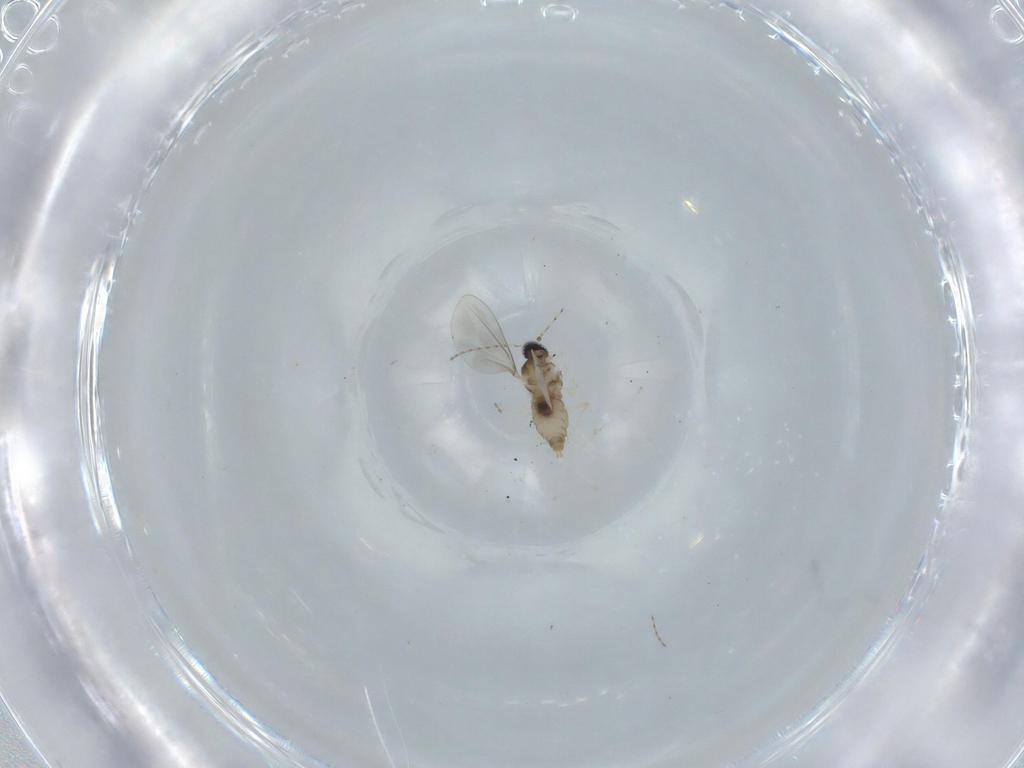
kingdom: Animalia
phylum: Arthropoda
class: Insecta
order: Diptera
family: Cecidomyiidae
